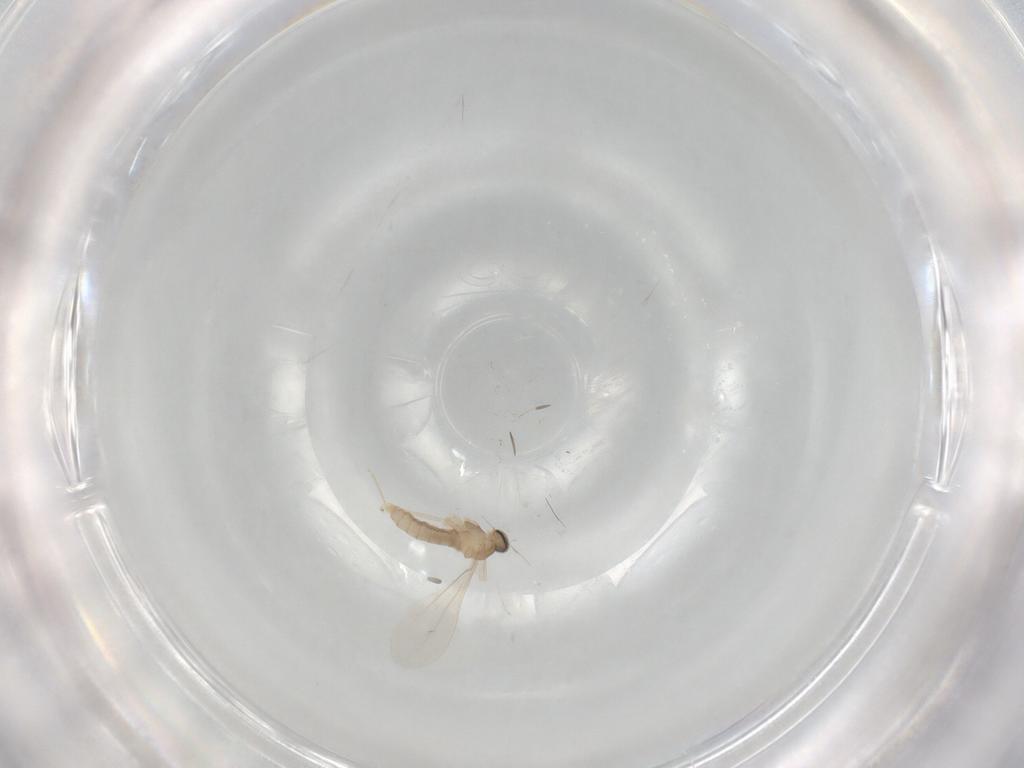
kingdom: Animalia
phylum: Arthropoda
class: Insecta
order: Diptera
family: Cecidomyiidae
